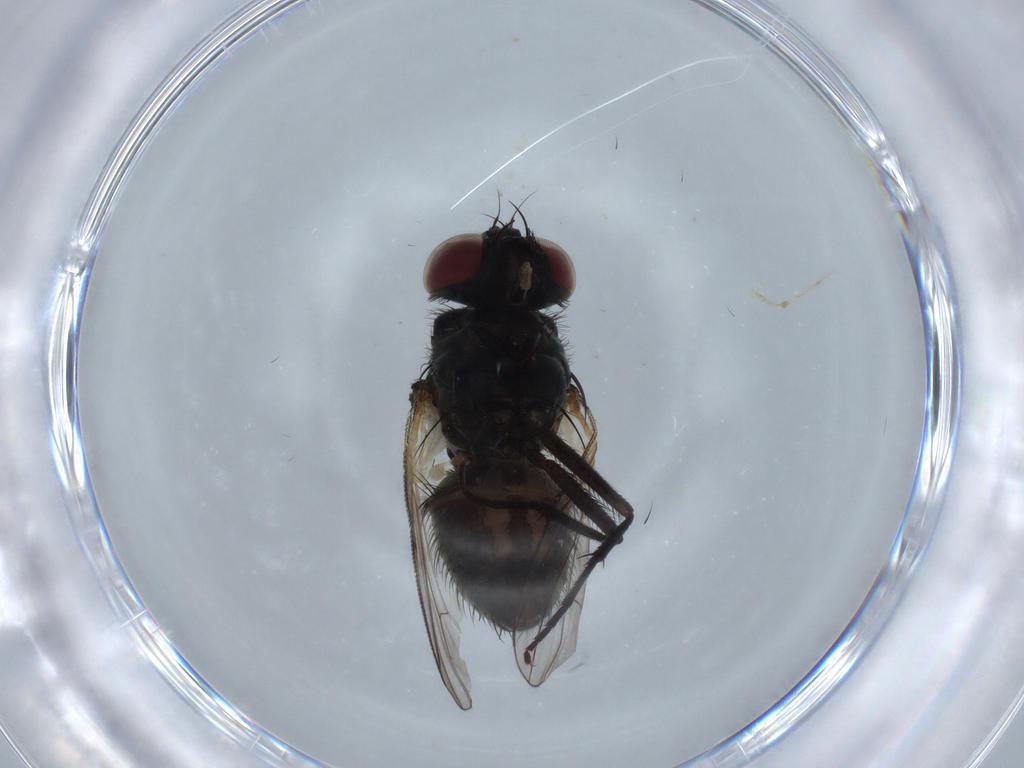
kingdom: Animalia
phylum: Arthropoda
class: Insecta
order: Diptera
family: Muscidae
